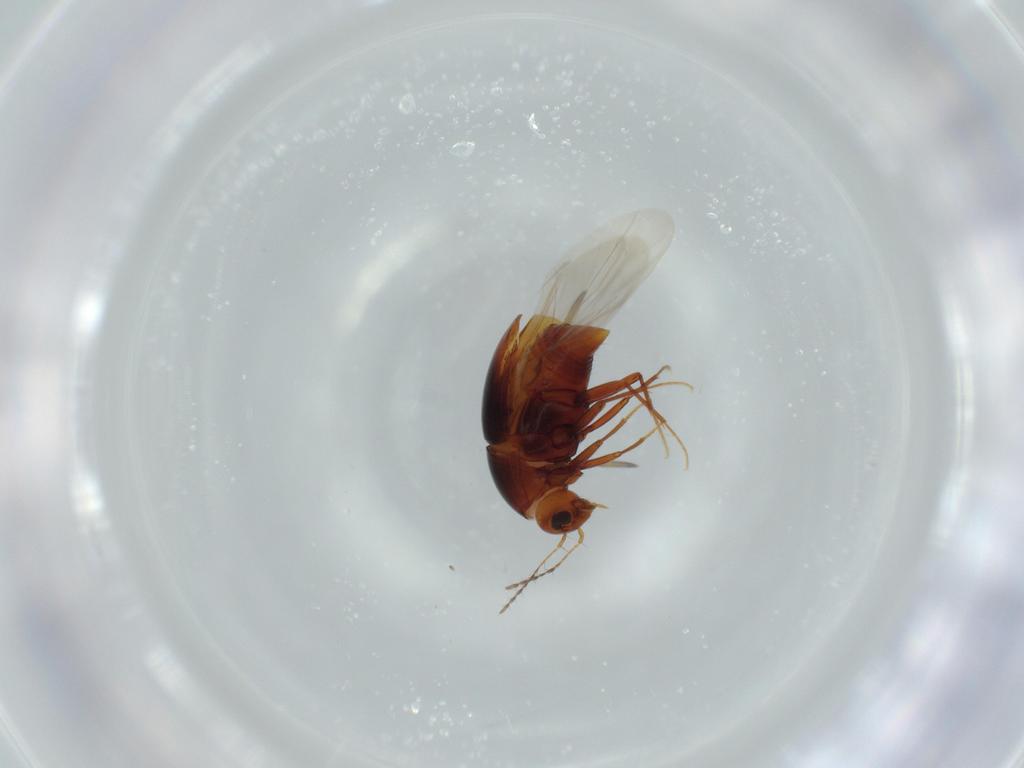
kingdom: Animalia
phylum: Arthropoda
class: Insecta
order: Coleoptera
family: Staphylinidae
